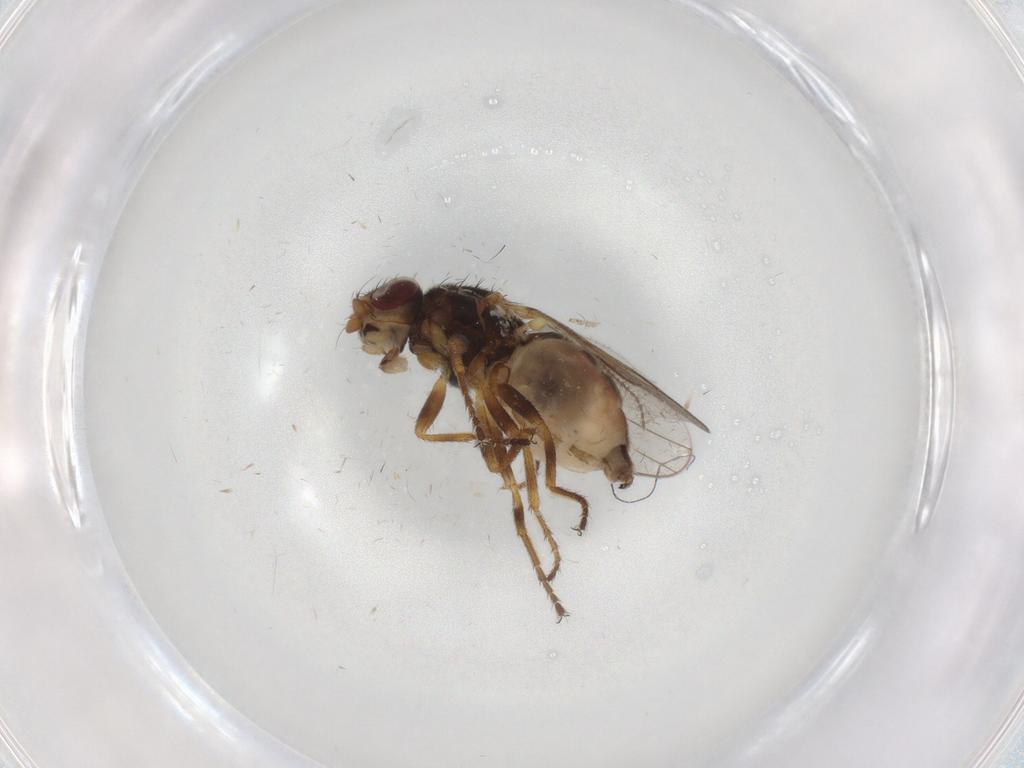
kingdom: Animalia
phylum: Arthropoda
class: Insecta
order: Diptera
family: Chloropidae
